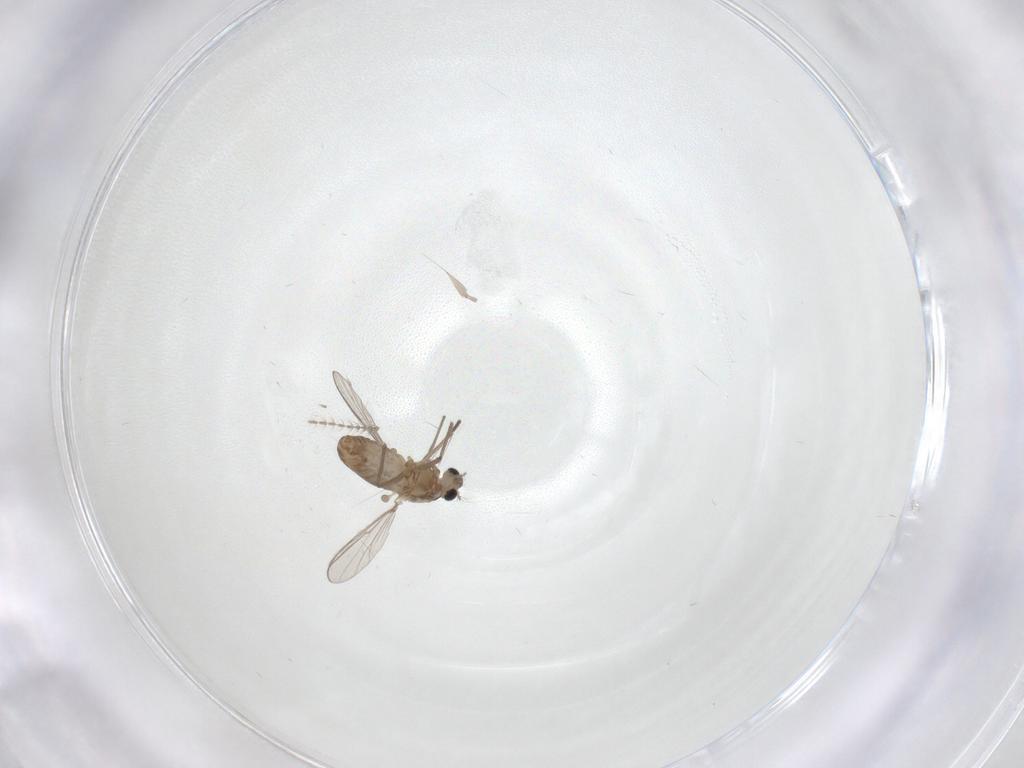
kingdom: Animalia
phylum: Arthropoda
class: Insecta
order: Diptera
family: Chironomidae
